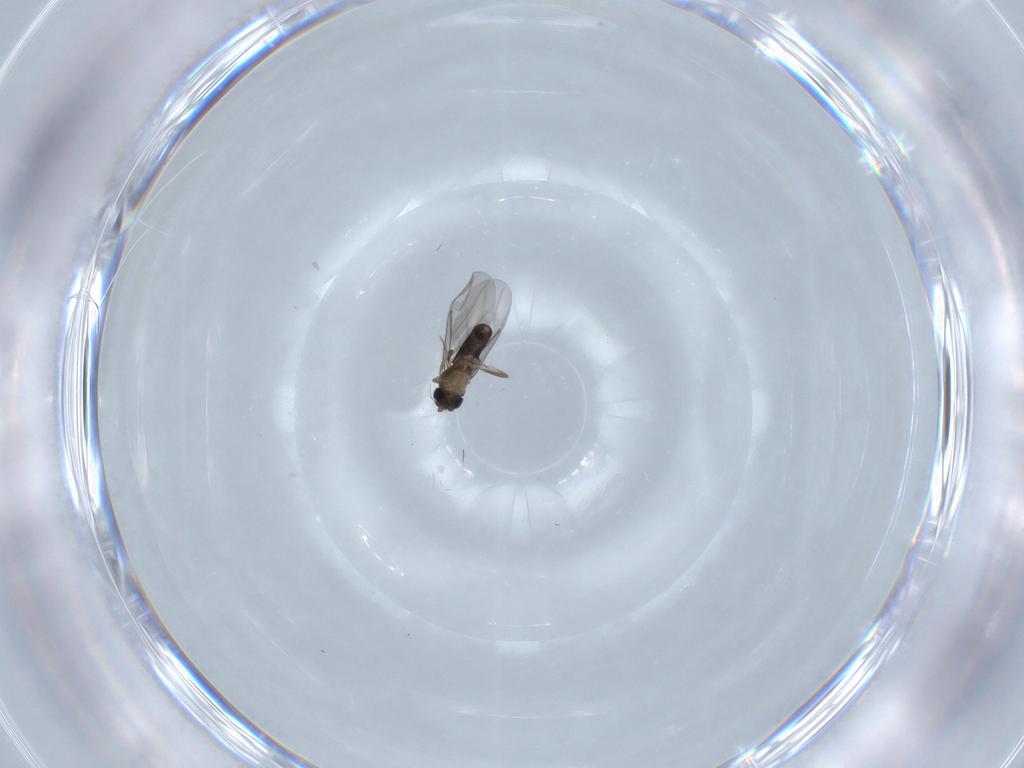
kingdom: Animalia
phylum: Arthropoda
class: Insecta
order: Diptera
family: Phoridae
